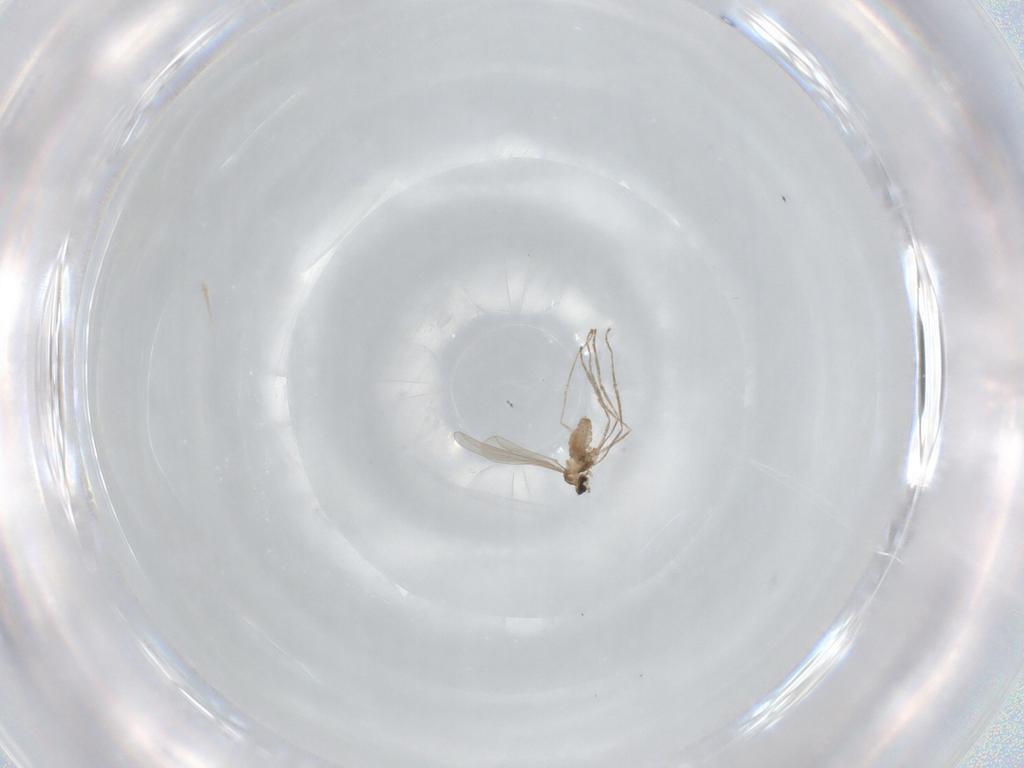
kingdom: Animalia
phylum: Arthropoda
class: Insecta
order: Diptera
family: Cecidomyiidae
